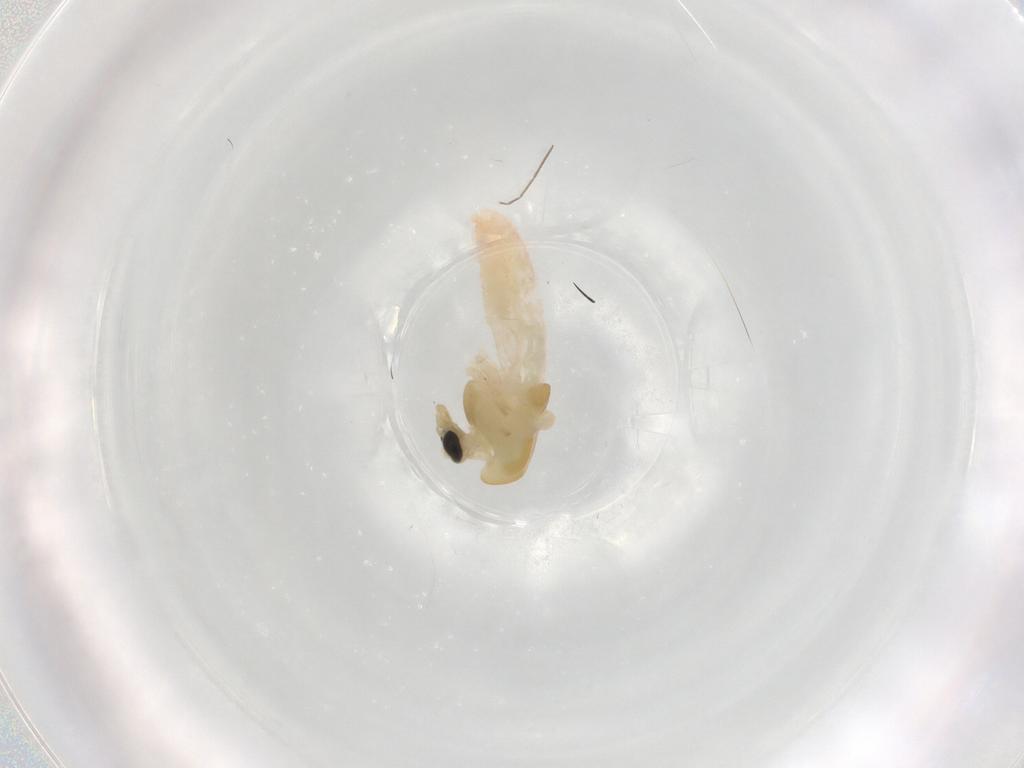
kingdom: Animalia
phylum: Arthropoda
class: Insecta
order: Diptera
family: Chironomidae
